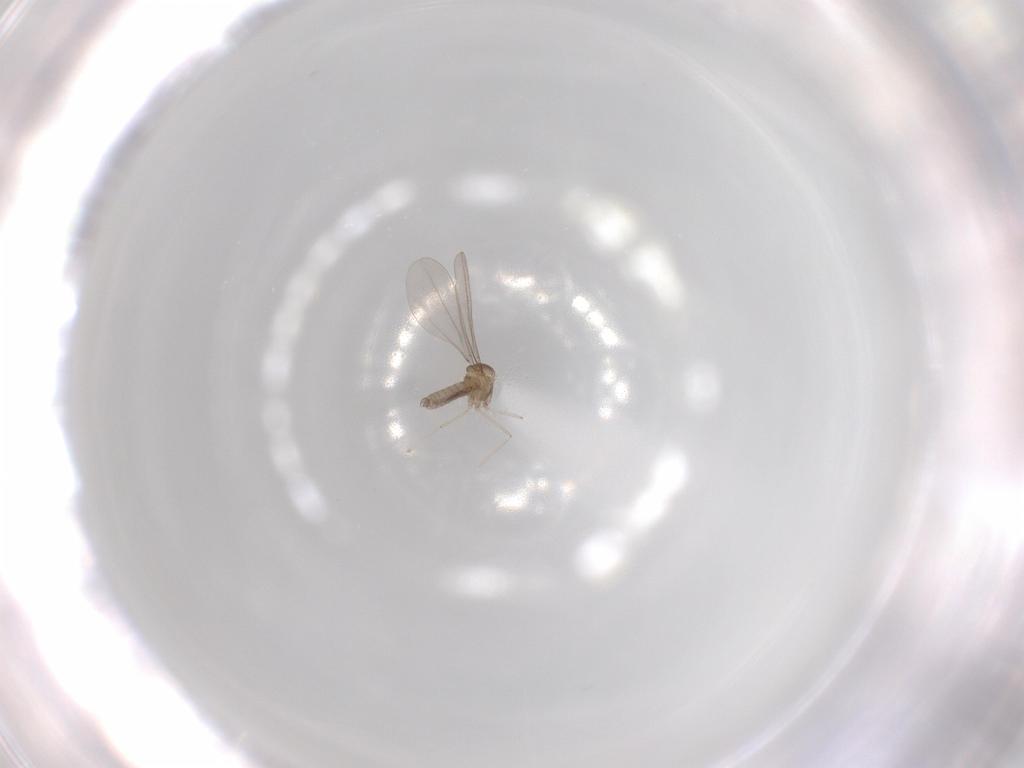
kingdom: Animalia
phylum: Arthropoda
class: Insecta
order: Diptera
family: Cecidomyiidae
